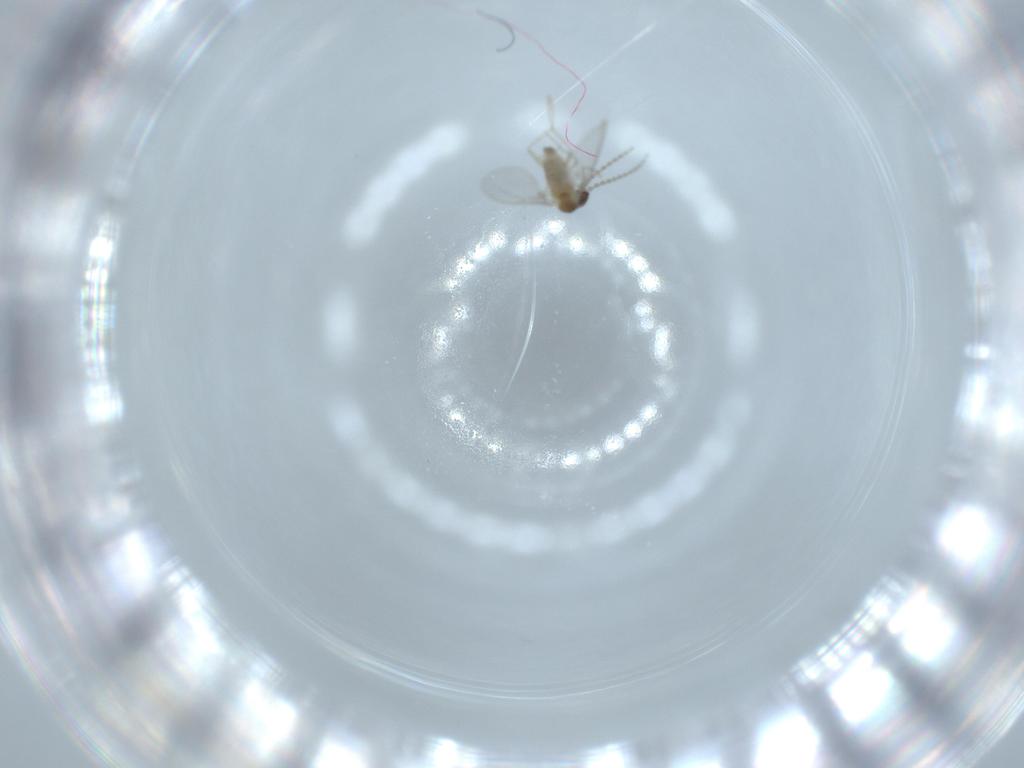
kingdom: Animalia
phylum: Arthropoda
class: Insecta
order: Diptera
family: Cecidomyiidae
